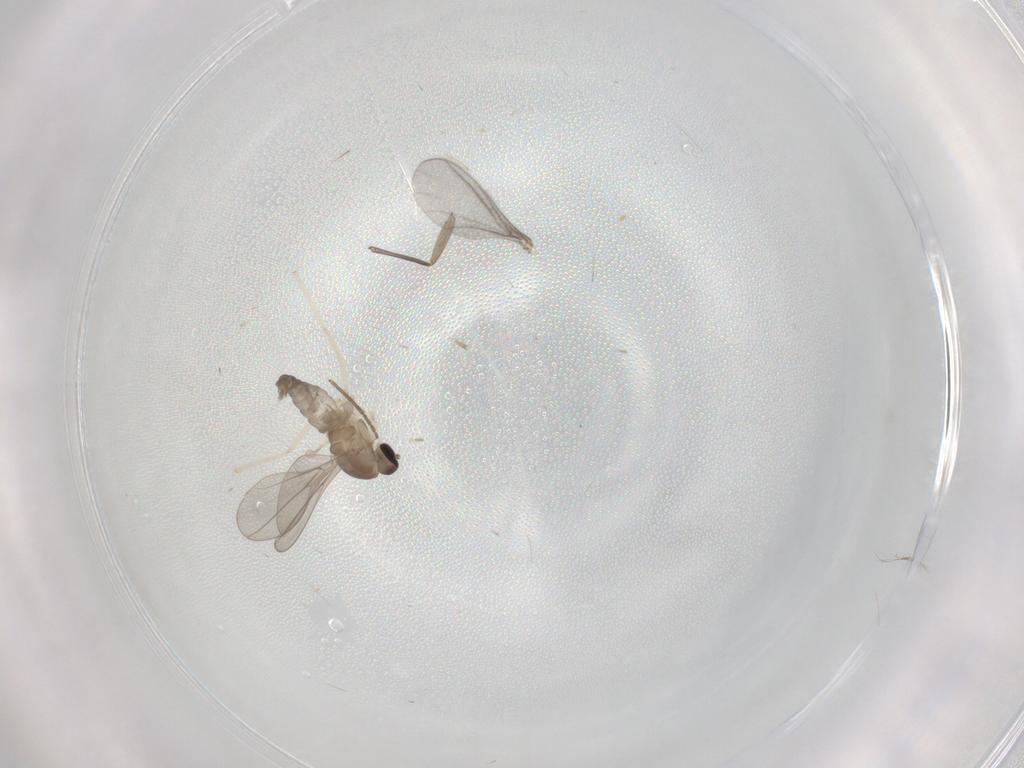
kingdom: Animalia
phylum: Arthropoda
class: Insecta
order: Diptera
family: Cecidomyiidae
